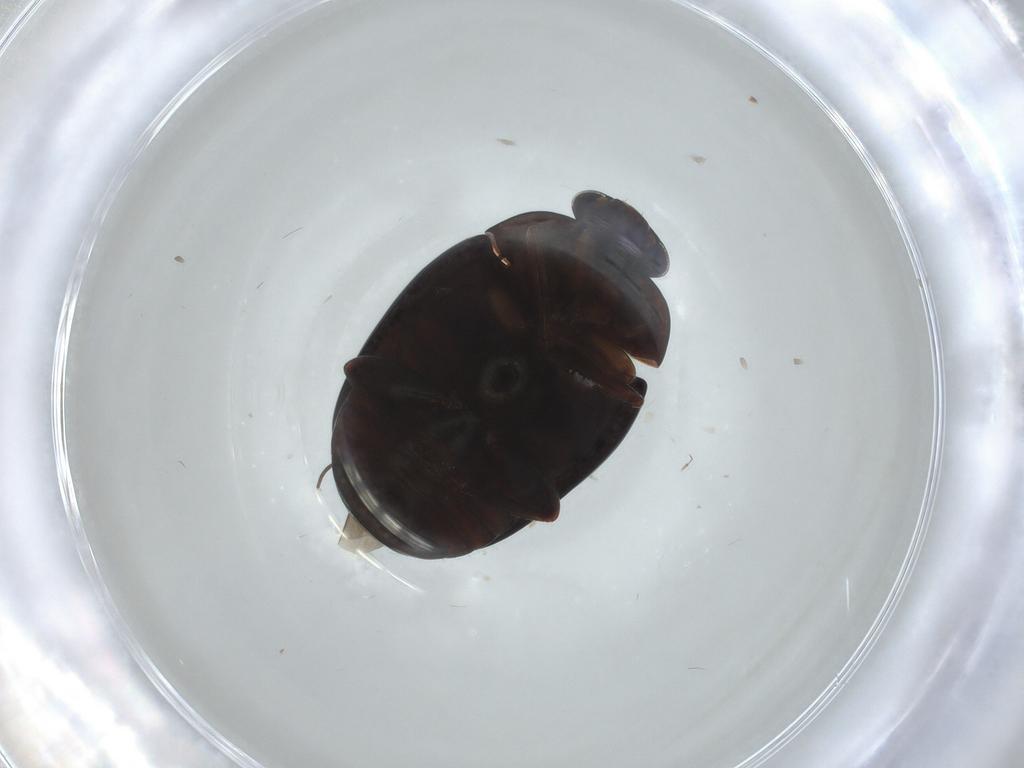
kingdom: Animalia
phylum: Arthropoda
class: Insecta
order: Coleoptera
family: Nitidulidae
